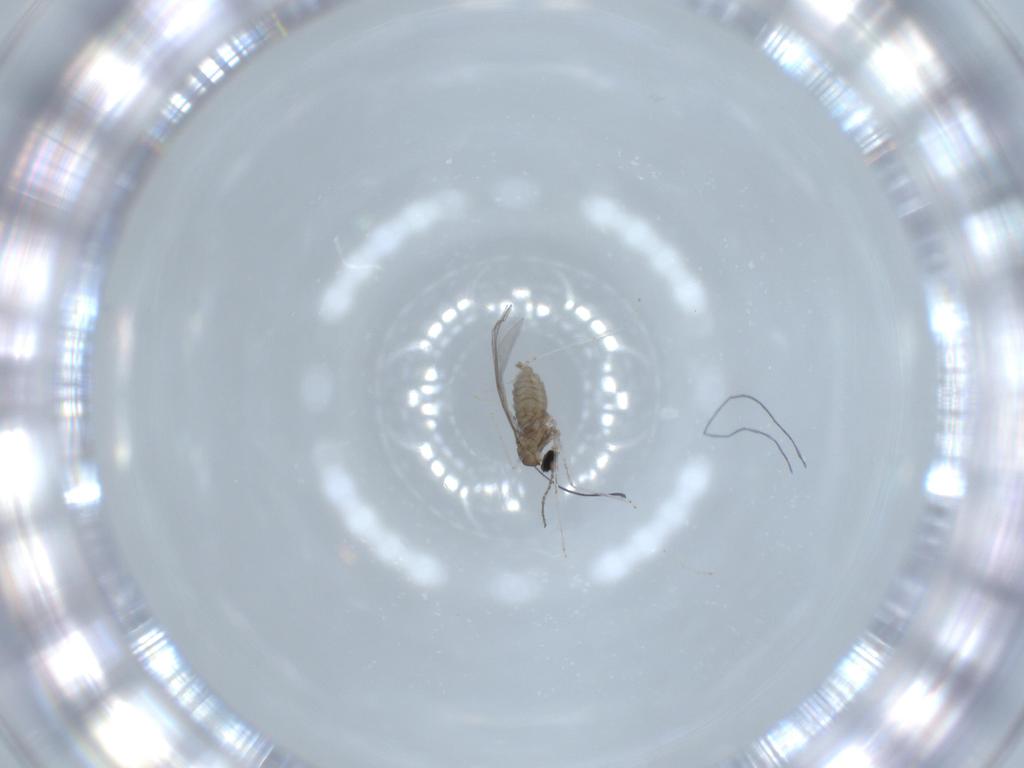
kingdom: Animalia
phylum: Arthropoda
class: Insecta
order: Diptera
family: Cecidomyiidae
